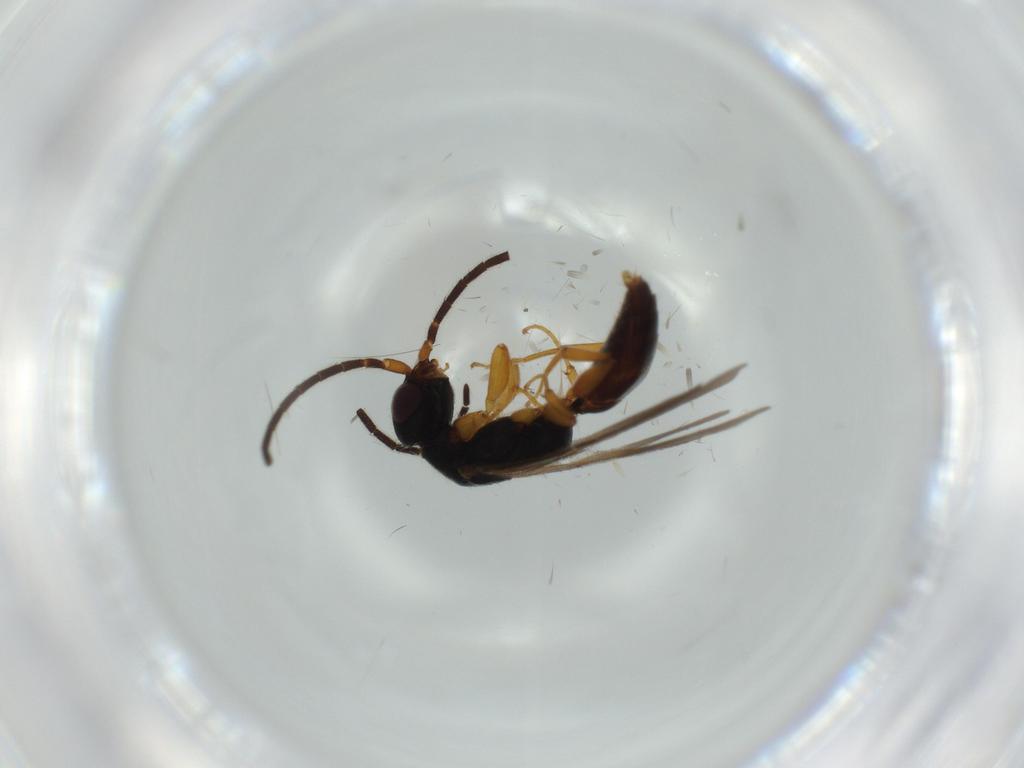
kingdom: Animalia
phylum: Arthropoda
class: Insecta
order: Hymenoptera
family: Bethylidae
